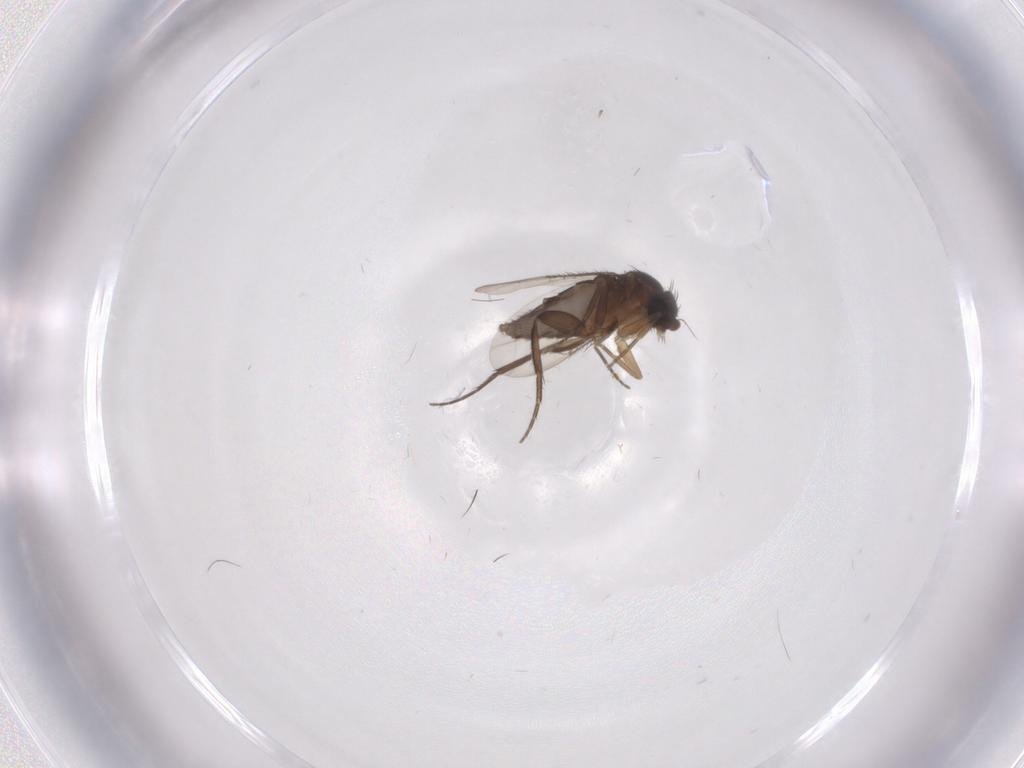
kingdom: Animalia
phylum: Arthropoda
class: Insecta
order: Diptera
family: Phoridae
